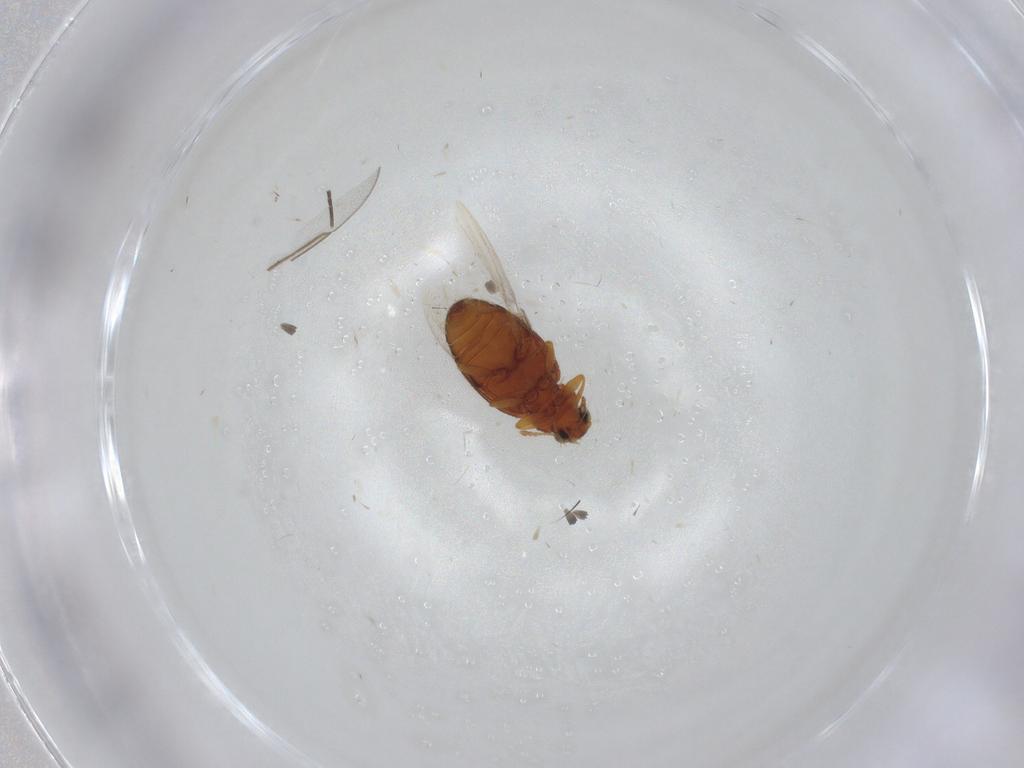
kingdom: Animalia
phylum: Arthropoda
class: Insecta
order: Coleoptera
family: Latridiidae
